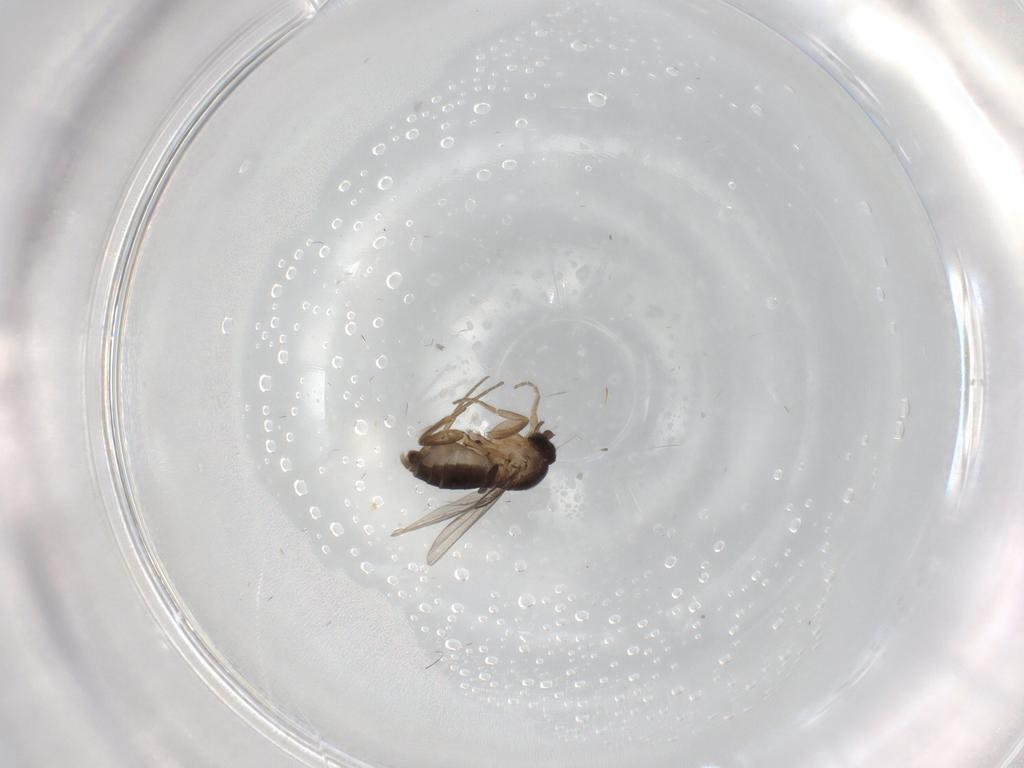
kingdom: Animalia
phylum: Arthropoda
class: Insecta
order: Diptera
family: Phoridae
